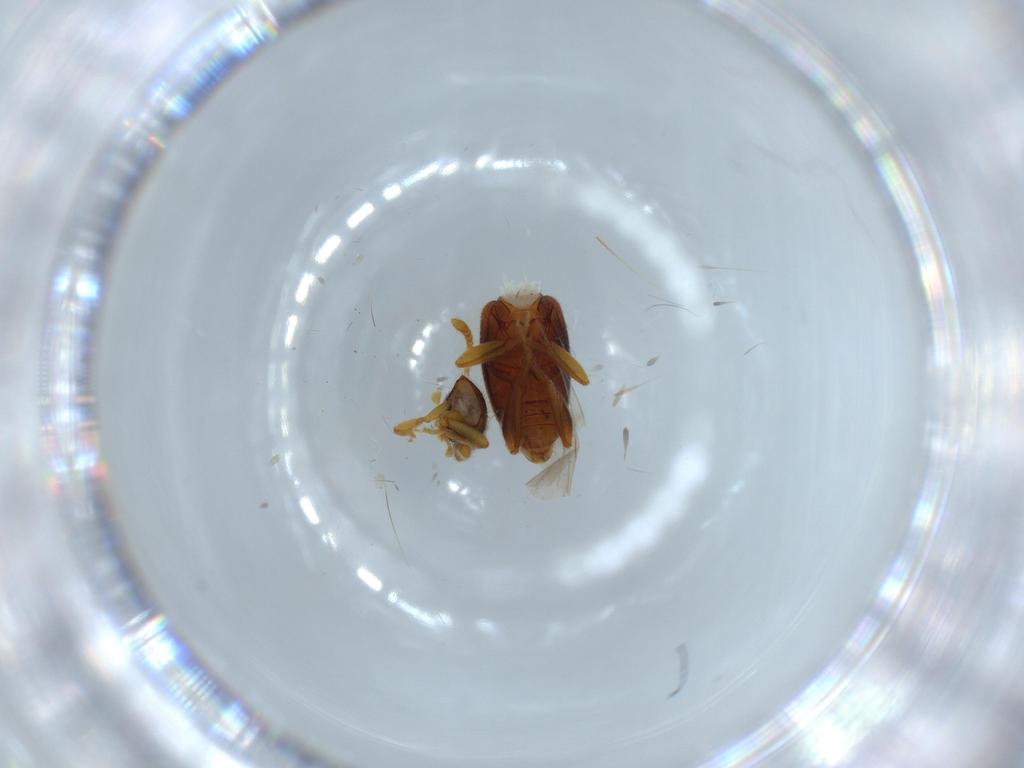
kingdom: Animalia
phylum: Arthropoda
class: Insecta
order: Coleoptera
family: Aderidae
